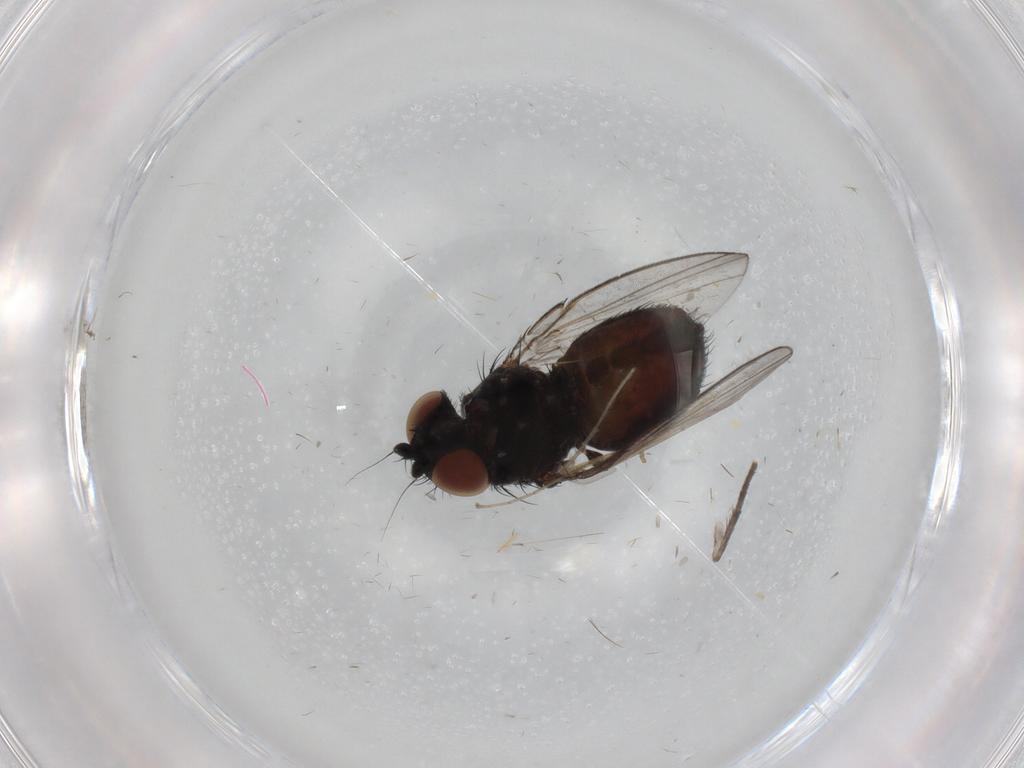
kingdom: Animalia
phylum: Arthropoda
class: Insecta
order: Diptera
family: Milichiidae
